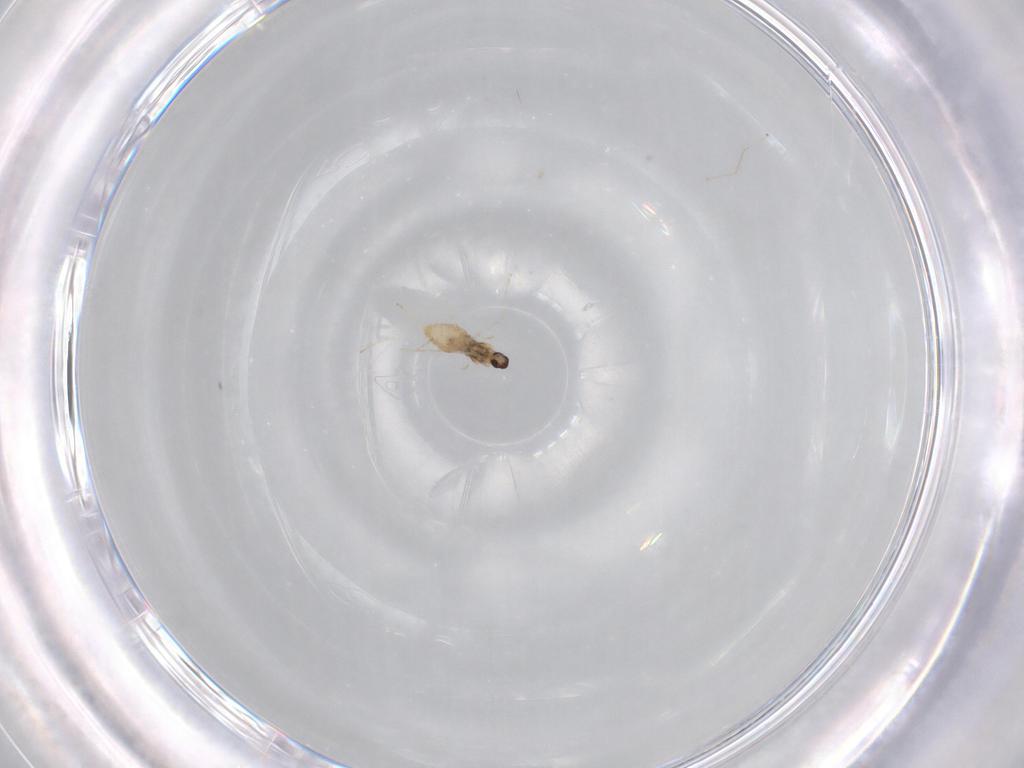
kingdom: Animalia
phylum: Arthropoda
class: Insecta
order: Diptera
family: Cecidomyiidae
